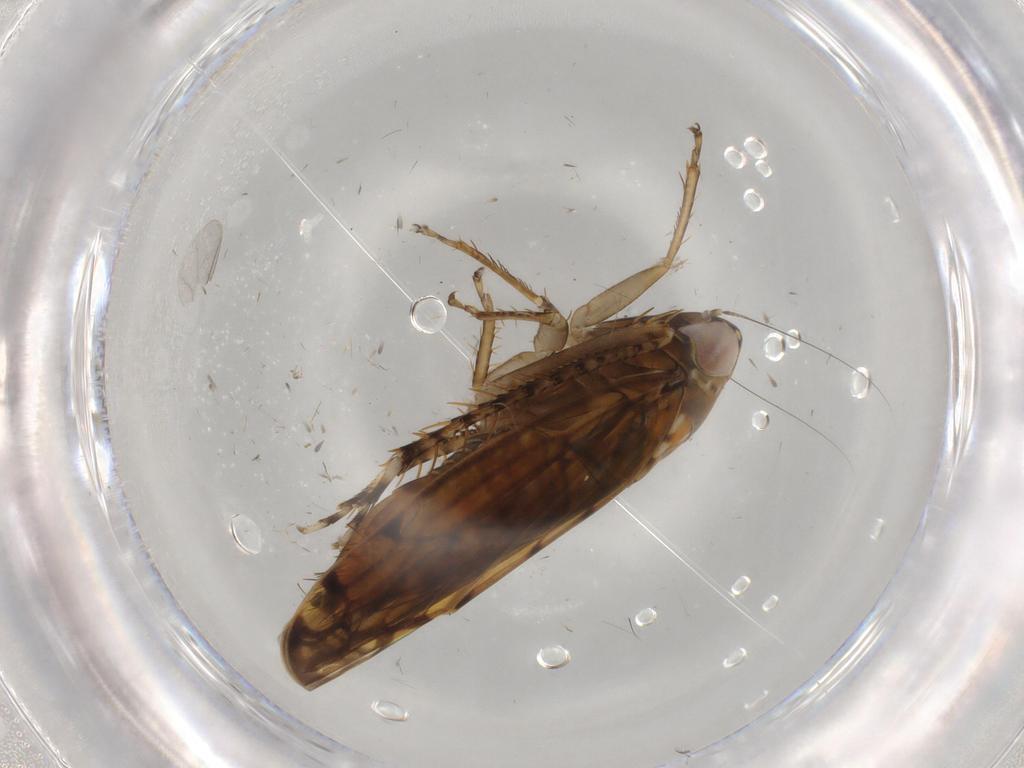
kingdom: Animalia
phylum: Arthropoda
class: Insecta
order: Hemiptera
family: Cicadellidae
